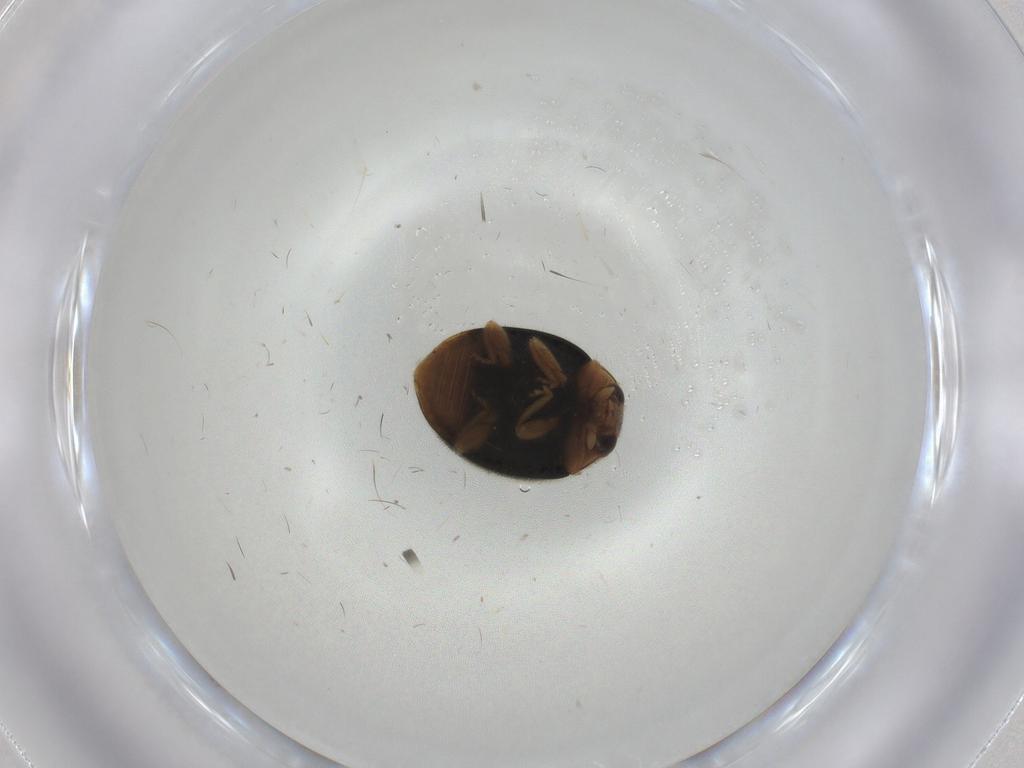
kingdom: Animalia
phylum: Arthropoda
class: Insecta
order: Coleoptera
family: Coccinellidae
